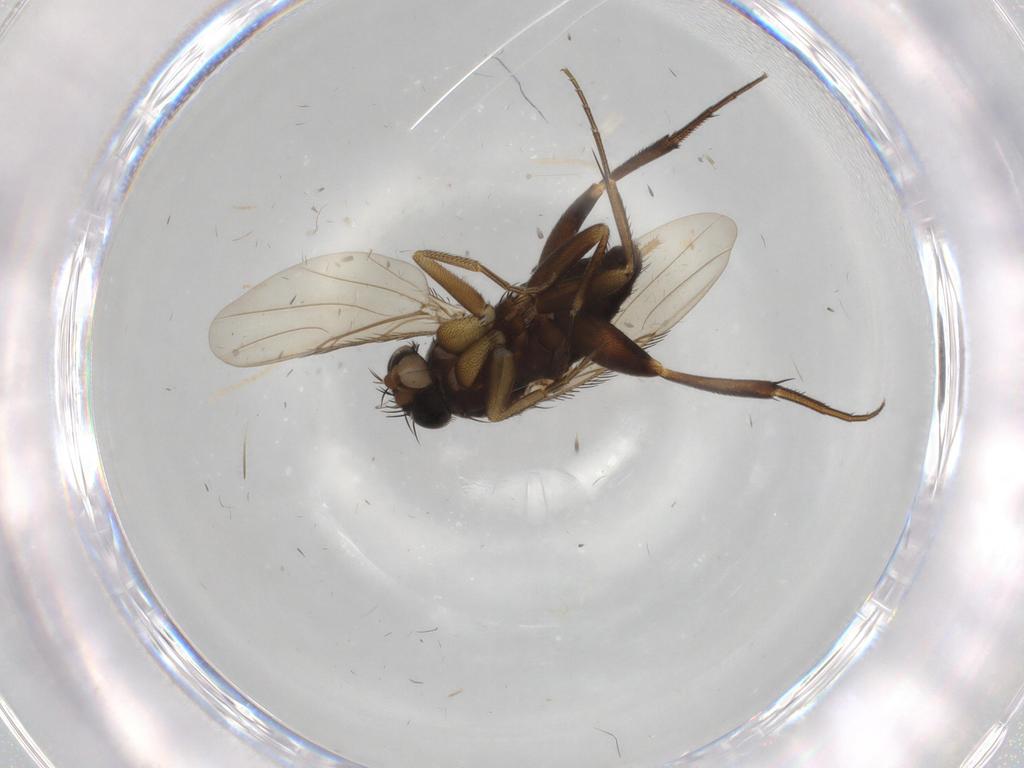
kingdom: Animalia
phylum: Arthropoda
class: Insecta
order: Diptera
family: Phoridae
